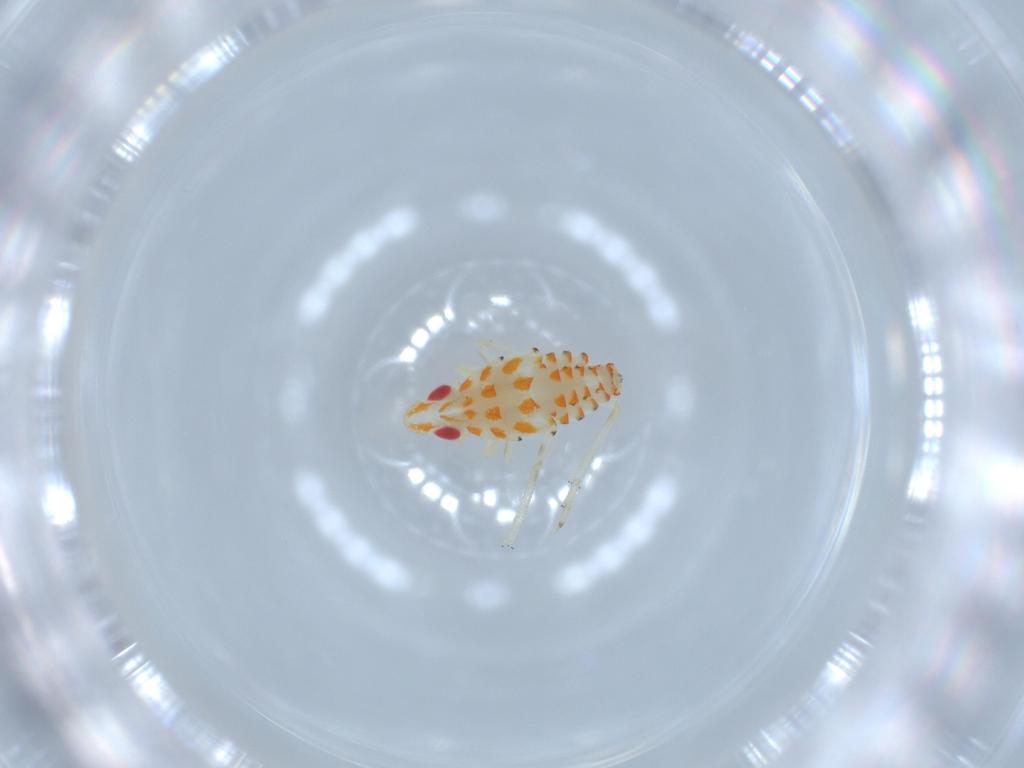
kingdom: Animalia
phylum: Arthropoda
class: Insecta
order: Hemiptera
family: Tropiduchidae
